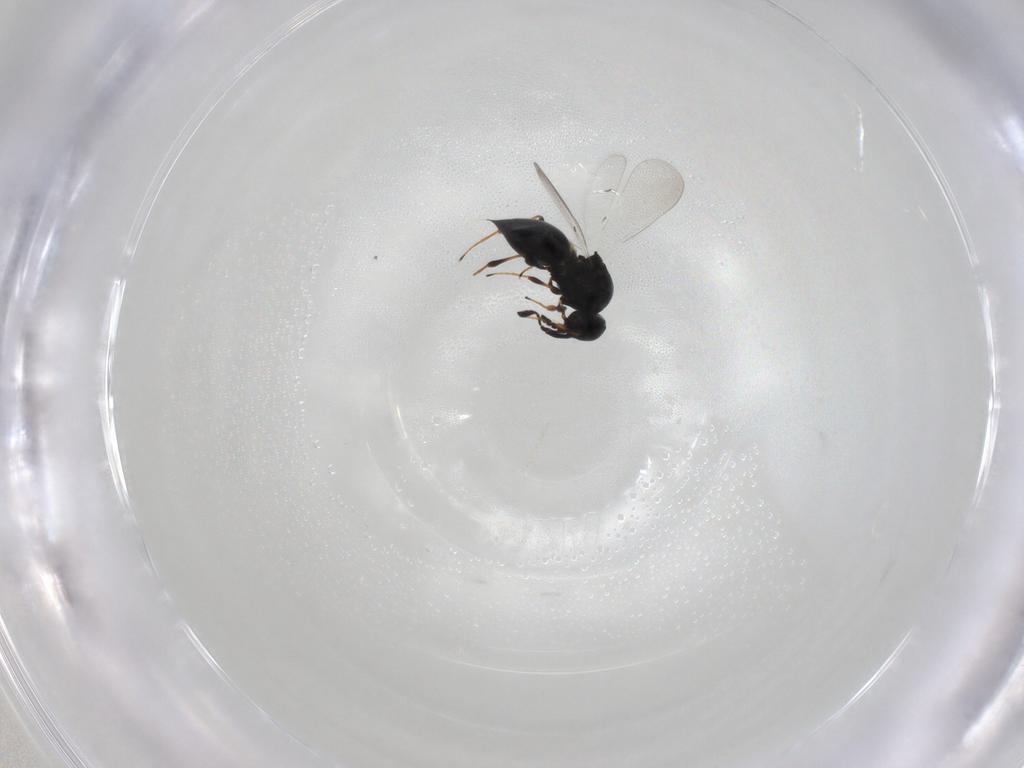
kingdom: Animalia
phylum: Arthropoda
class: Insecta
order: Hymenoptera
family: Platygastridae
